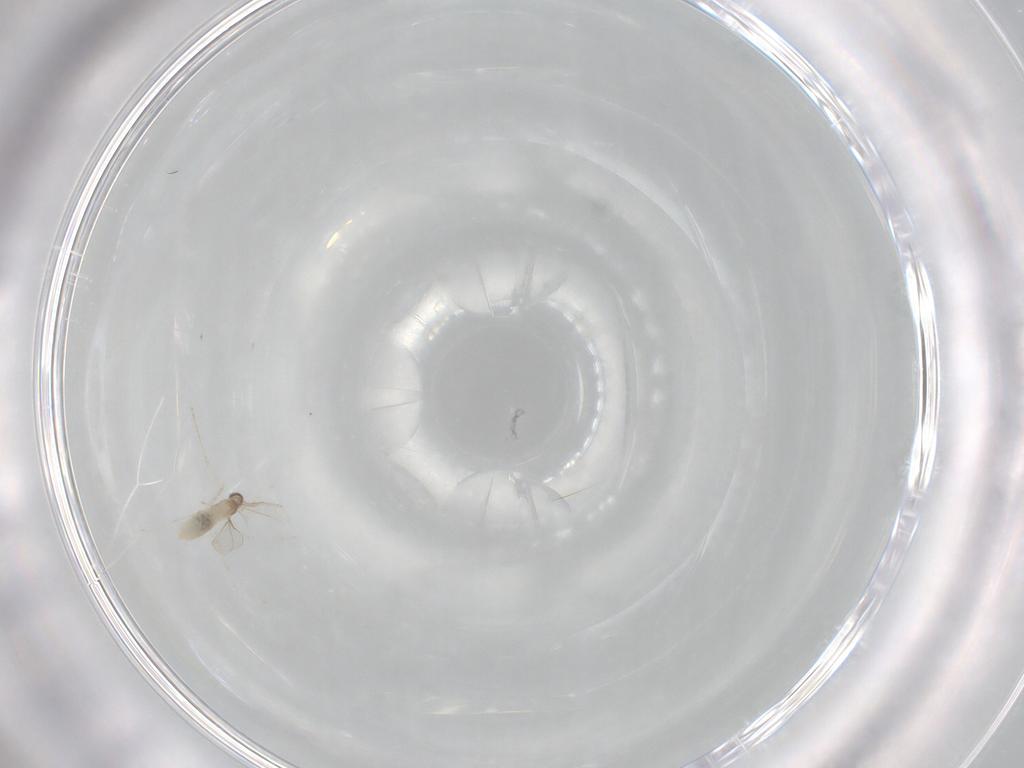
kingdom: Animalia
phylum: Arthropoda
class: Insecta
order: Diptera
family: Cecidomyiidae
